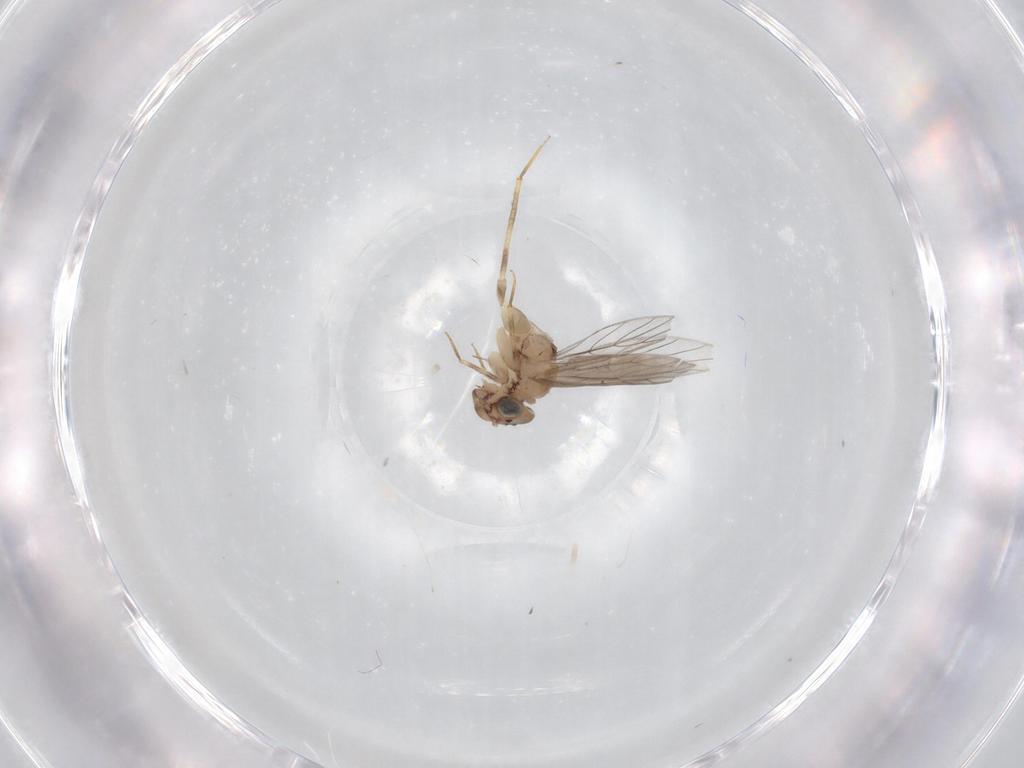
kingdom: Animalia
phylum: Arthropoda
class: Insecta
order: Psocodea
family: Lepidopsocidae
